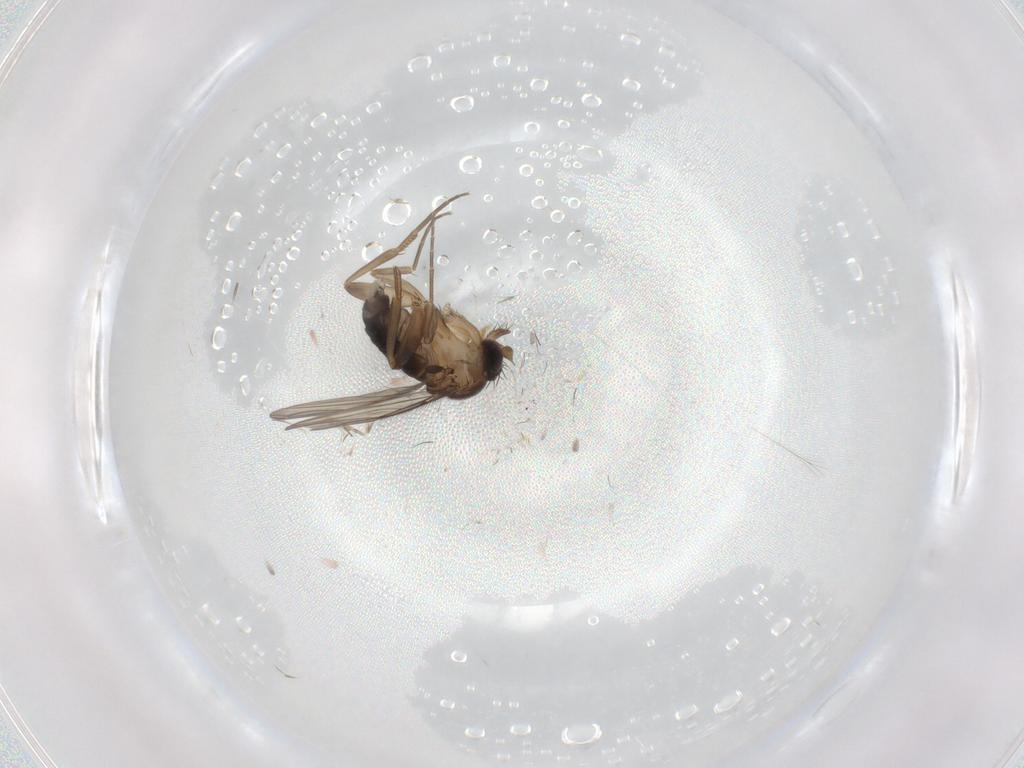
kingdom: Animalia
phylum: Arthropoda
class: Insecta
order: Diptera
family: Phoridae
